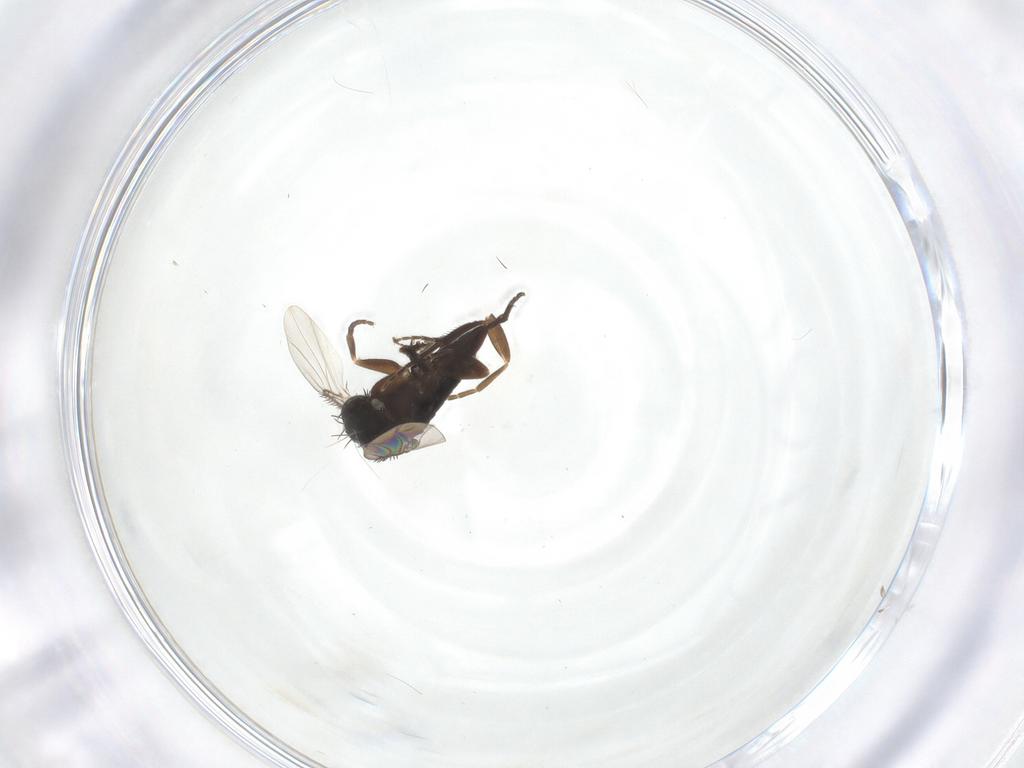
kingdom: Animalia
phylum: Arthropoda
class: Insecta
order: Diptera
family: Phoridae
